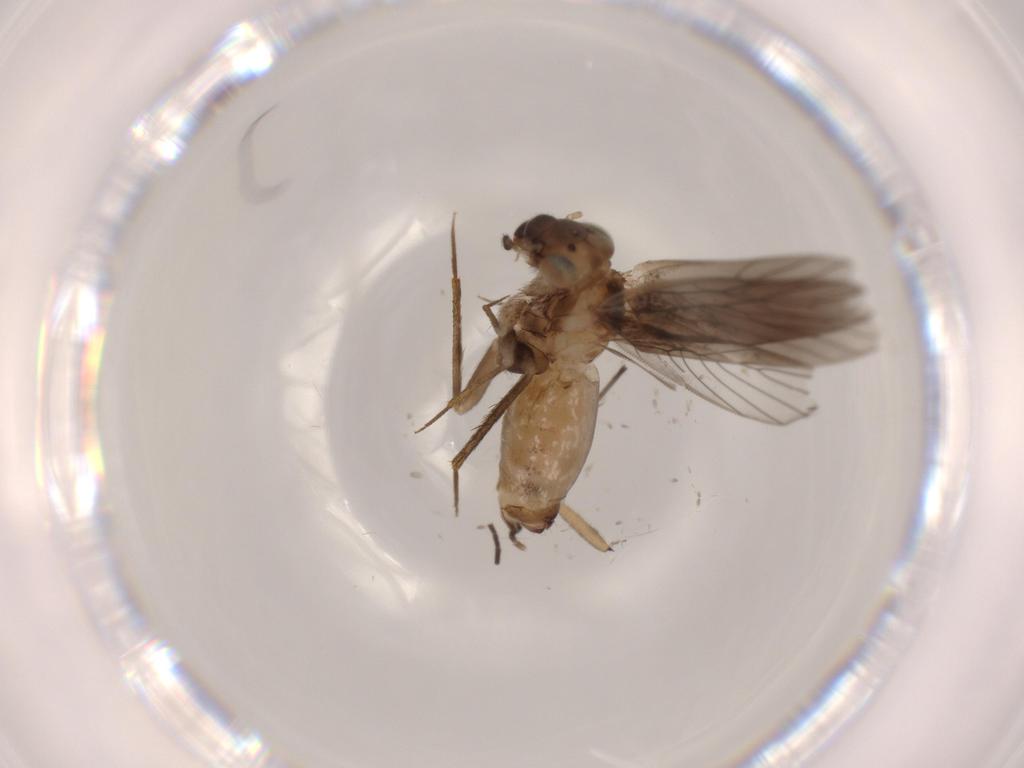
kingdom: Animalia
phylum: Arthropoda
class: Insecta
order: Psocodea
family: Lepidopsocidae
